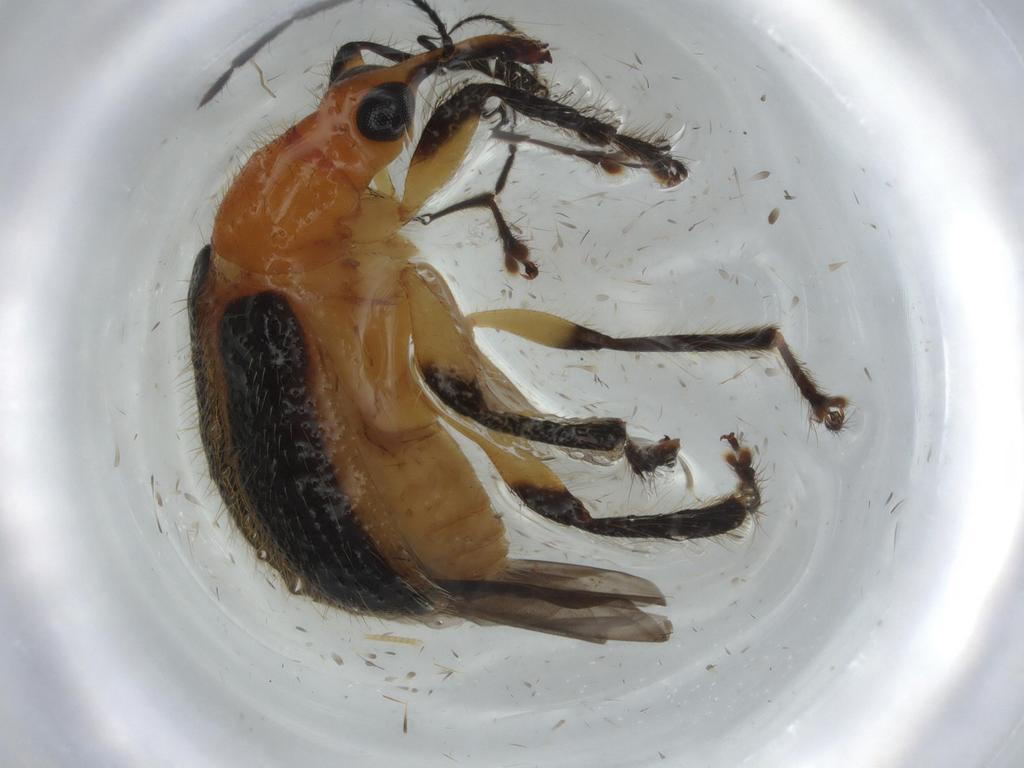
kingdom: Animalia
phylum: Arthropoda
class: Insecta
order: Coleoptera
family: Attelabidae
